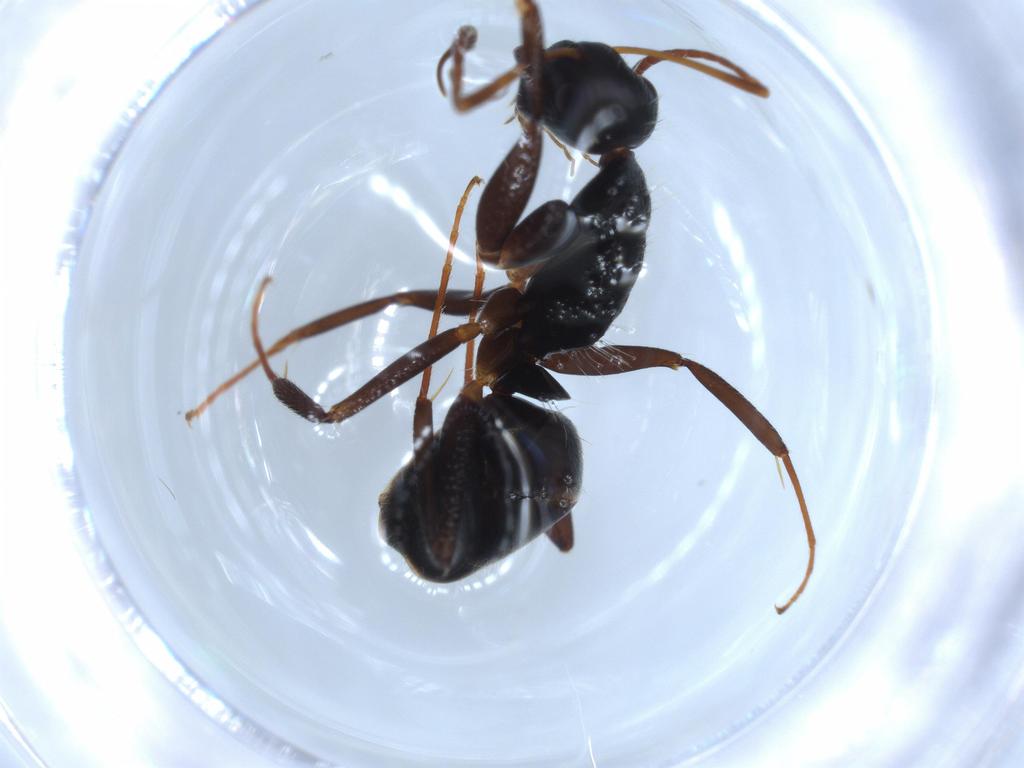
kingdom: Animalia
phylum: Arthropoda
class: Insecta
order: Hymenoptera
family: Formicidae
